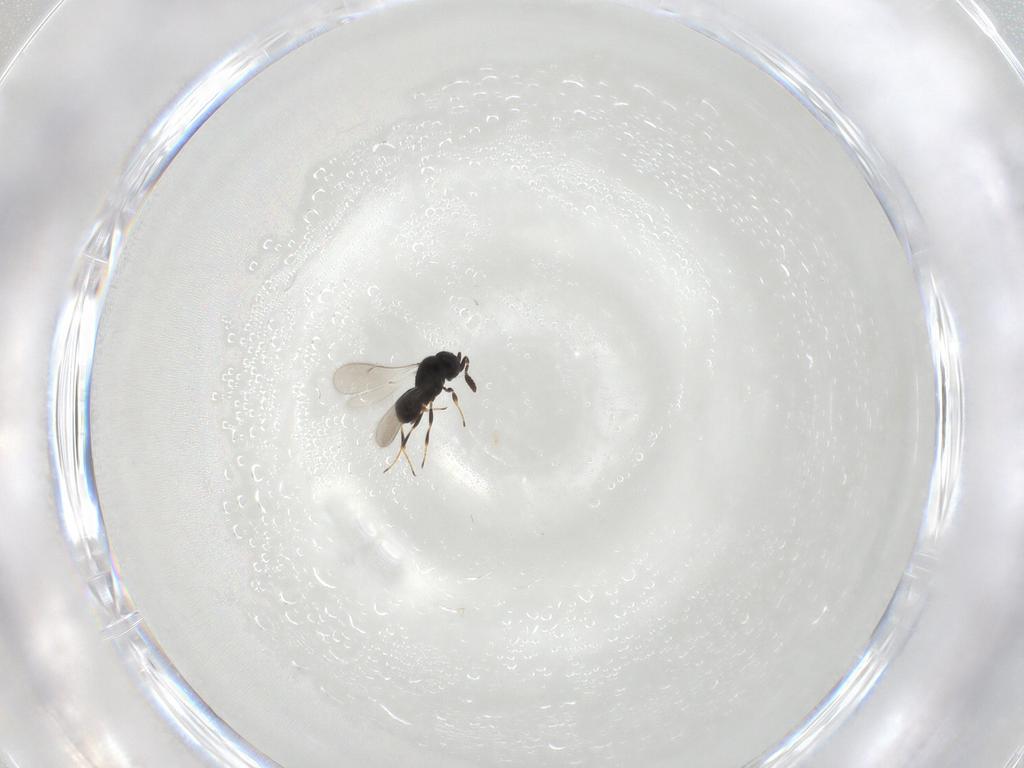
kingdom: Animalia
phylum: Arthropoda
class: Insecta
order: Hymenoptera
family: Scelionidae
